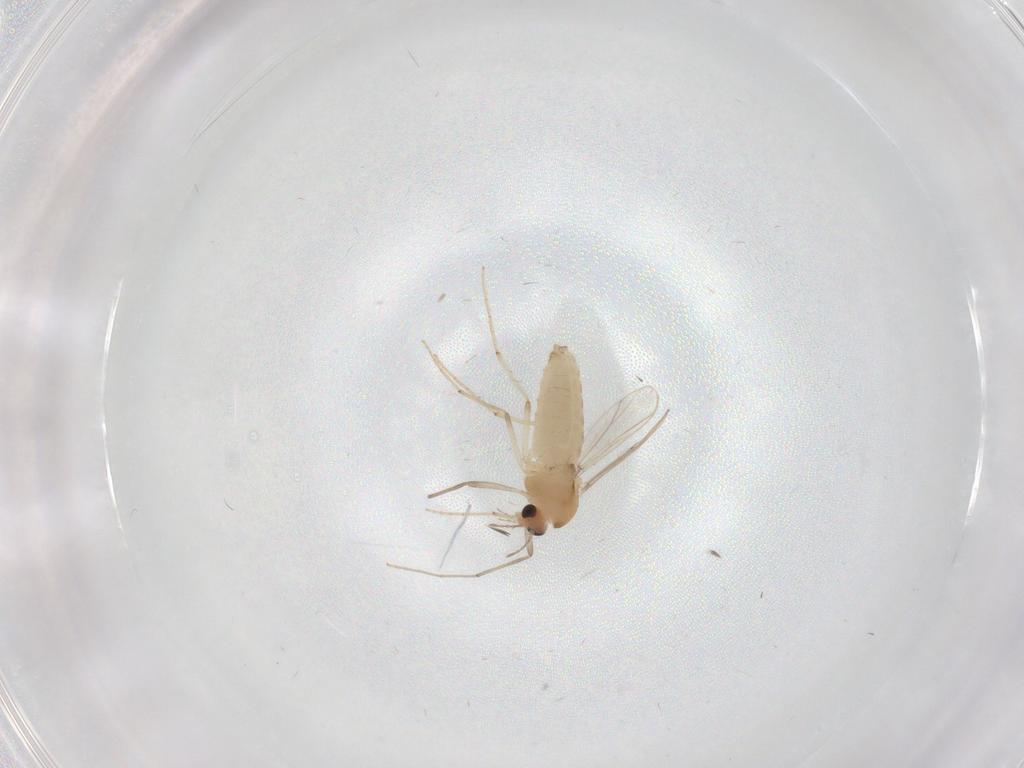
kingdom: Animalia
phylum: Arthropoda
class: Insecta
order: Diptera
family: Chironomidae
